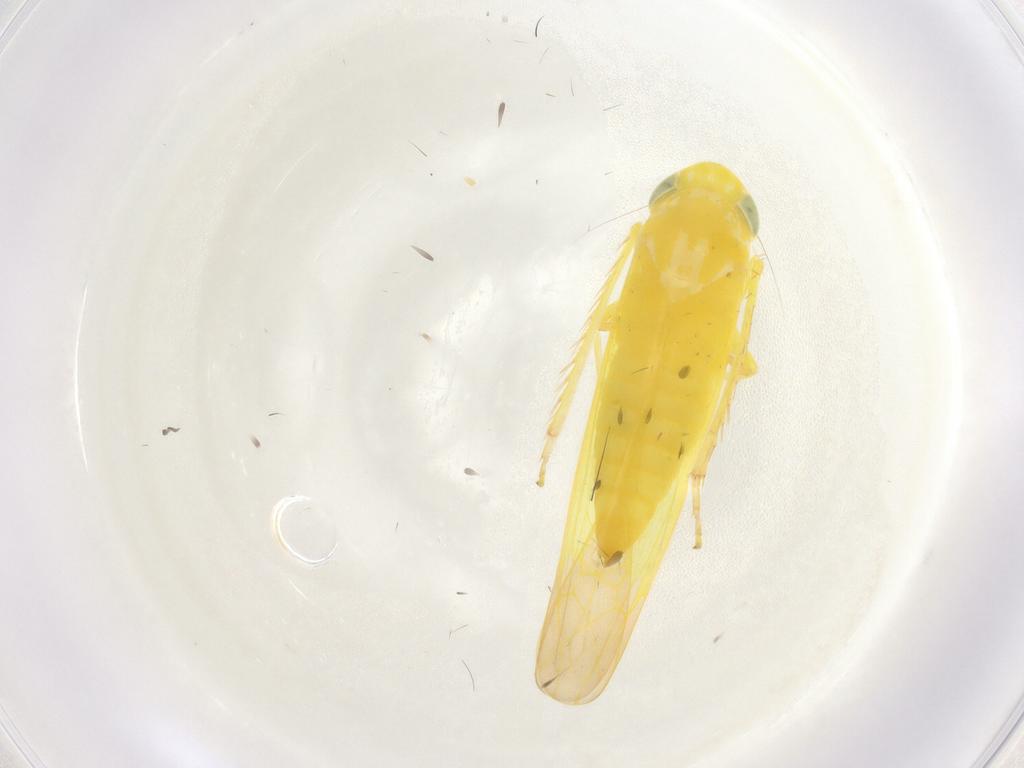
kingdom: Animalia
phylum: Arthropoda
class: Insecta
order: Hemiptera
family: Cicadellidae
